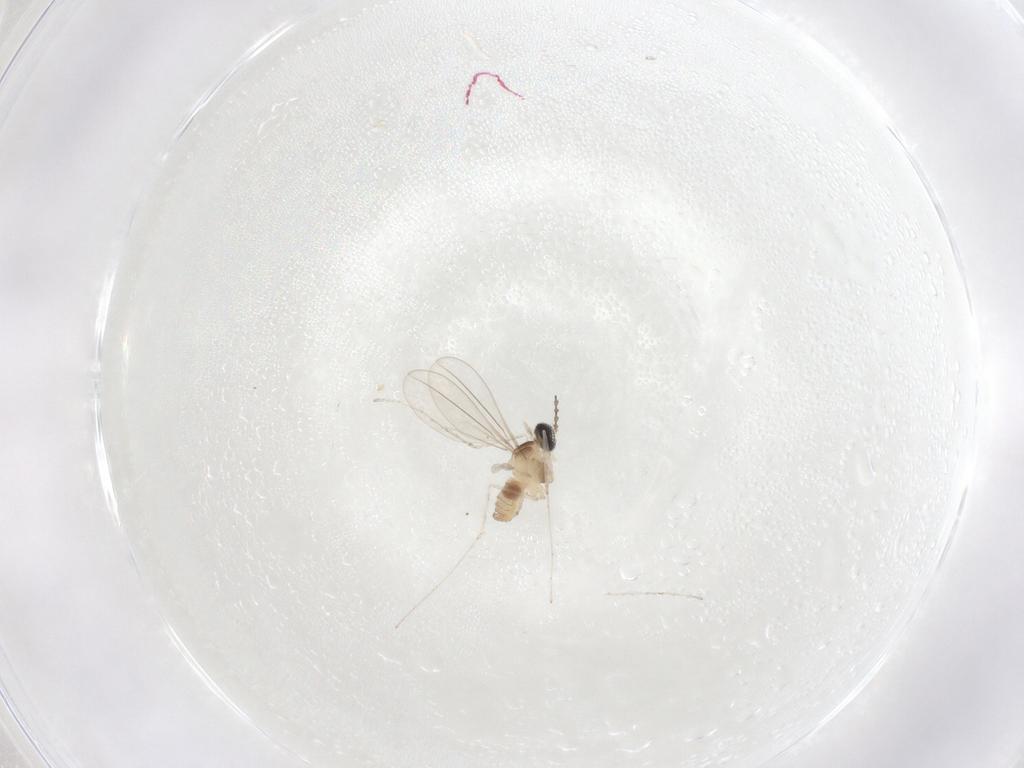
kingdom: Animalia
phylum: Arthropoda
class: Insecta
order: Diptera
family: Cecidomyiidae
